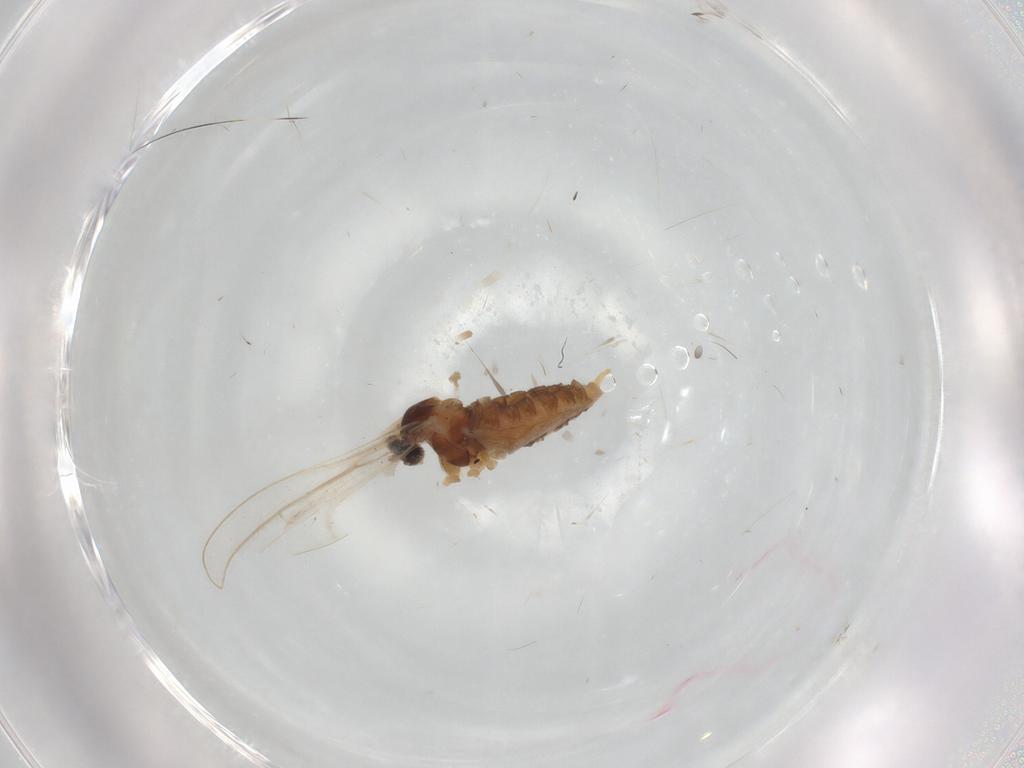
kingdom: Animalia
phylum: Arthropoda
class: Insecta
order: Diptera
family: Cecidomyiidae
